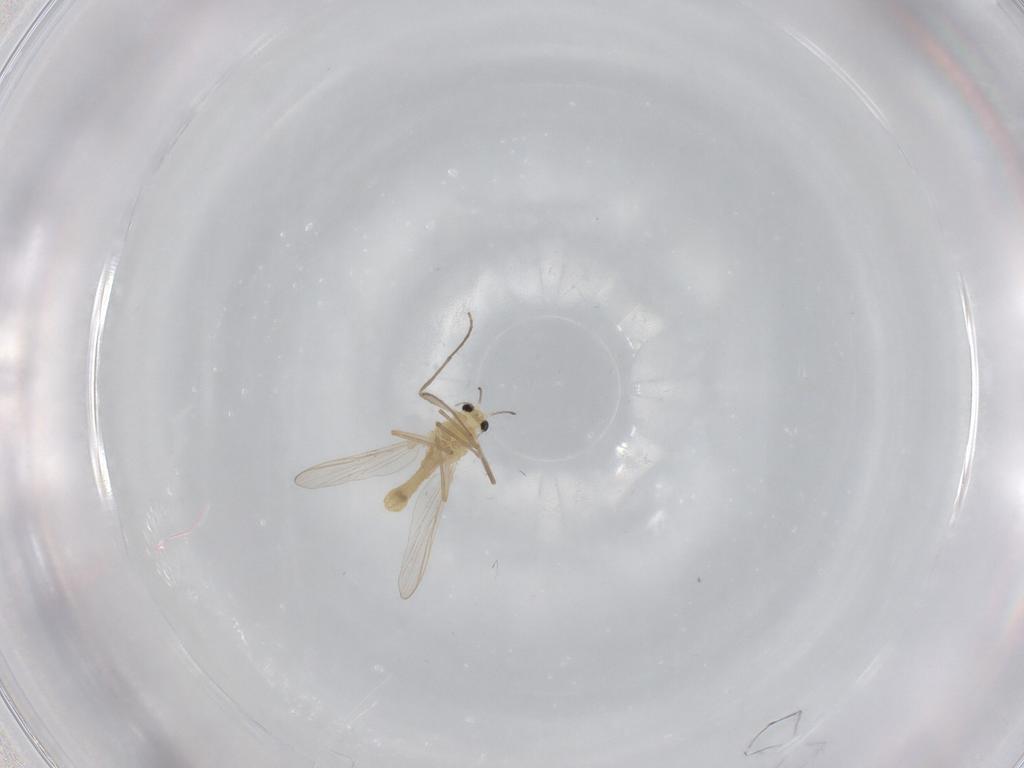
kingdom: Animalia
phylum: Arthropoda
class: Insecta
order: Diptera
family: Chironomidae
